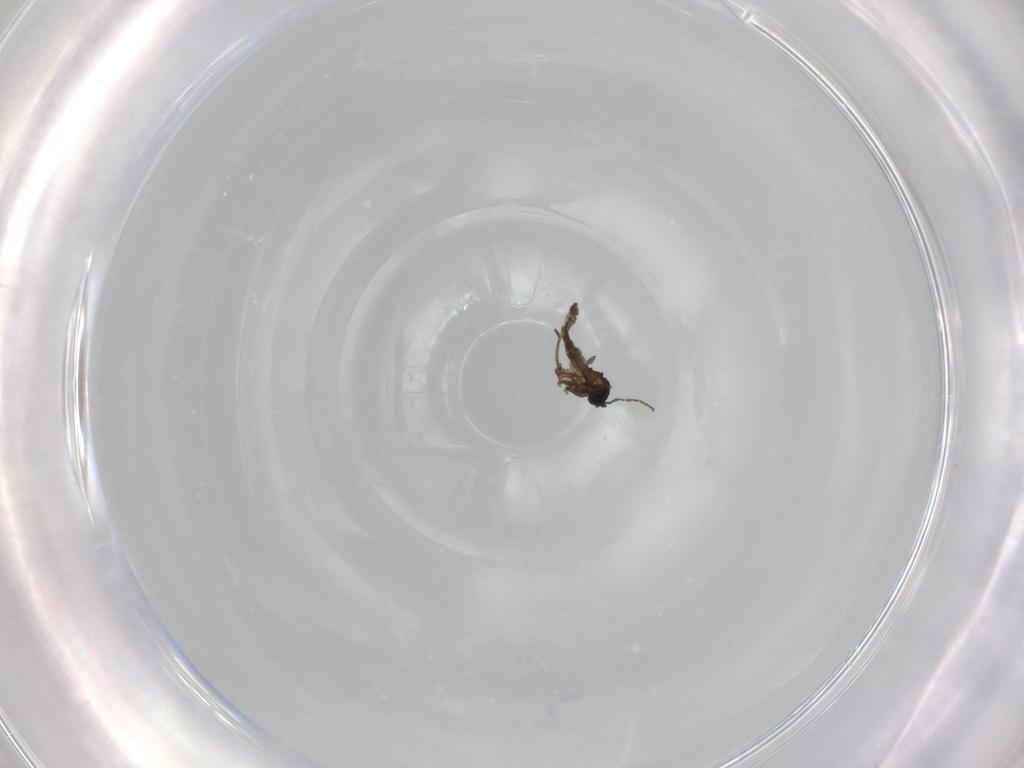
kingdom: Animalia
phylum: Arthropoda
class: Insecta
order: Diptera
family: Sciaridae
